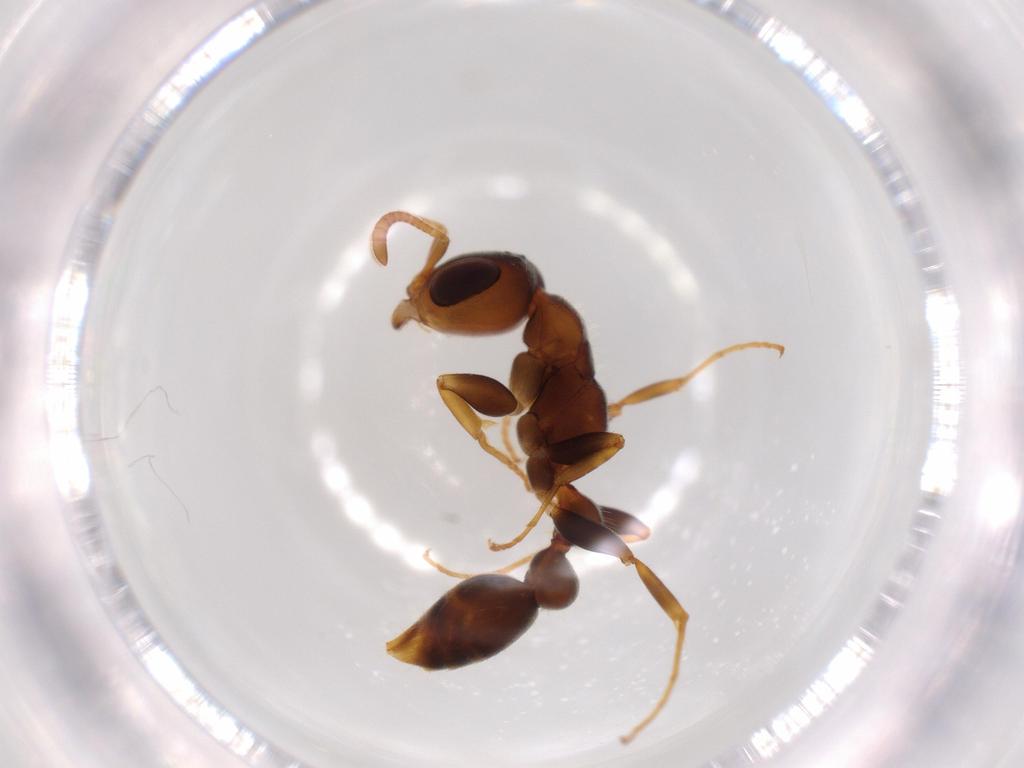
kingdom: Animalia
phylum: Arthropoda
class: Insecta
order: Hymenoptera
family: Formicidae
